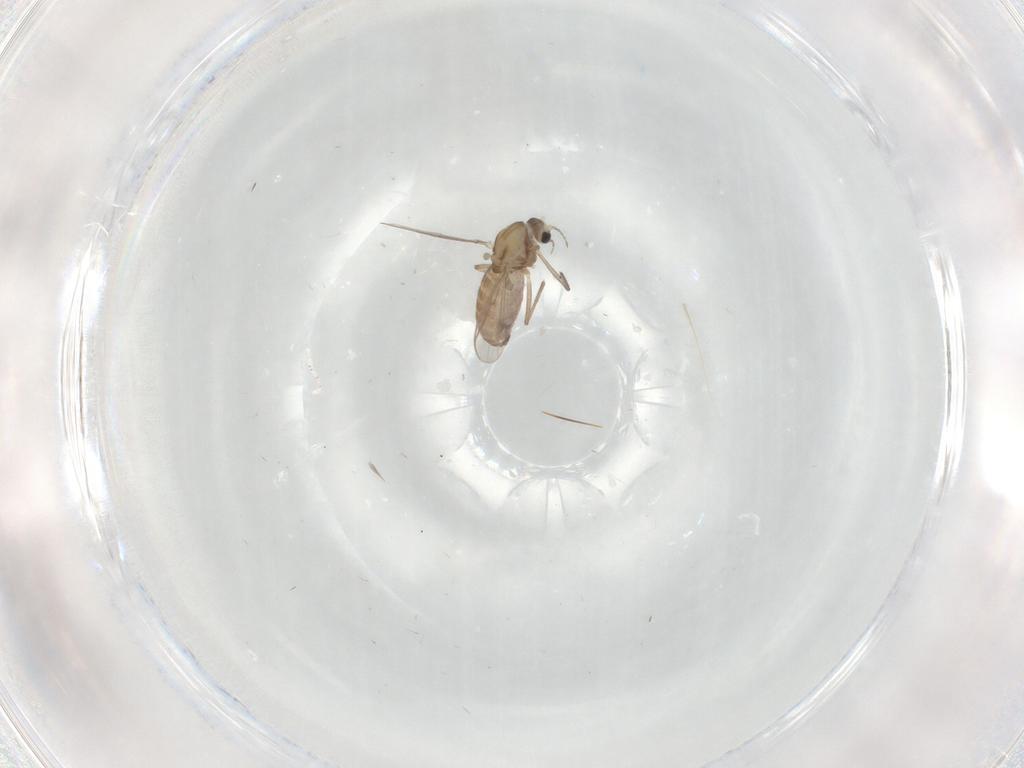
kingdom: Animalia
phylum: Arthropoda
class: Insecta
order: Diptera
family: Chironomidae
